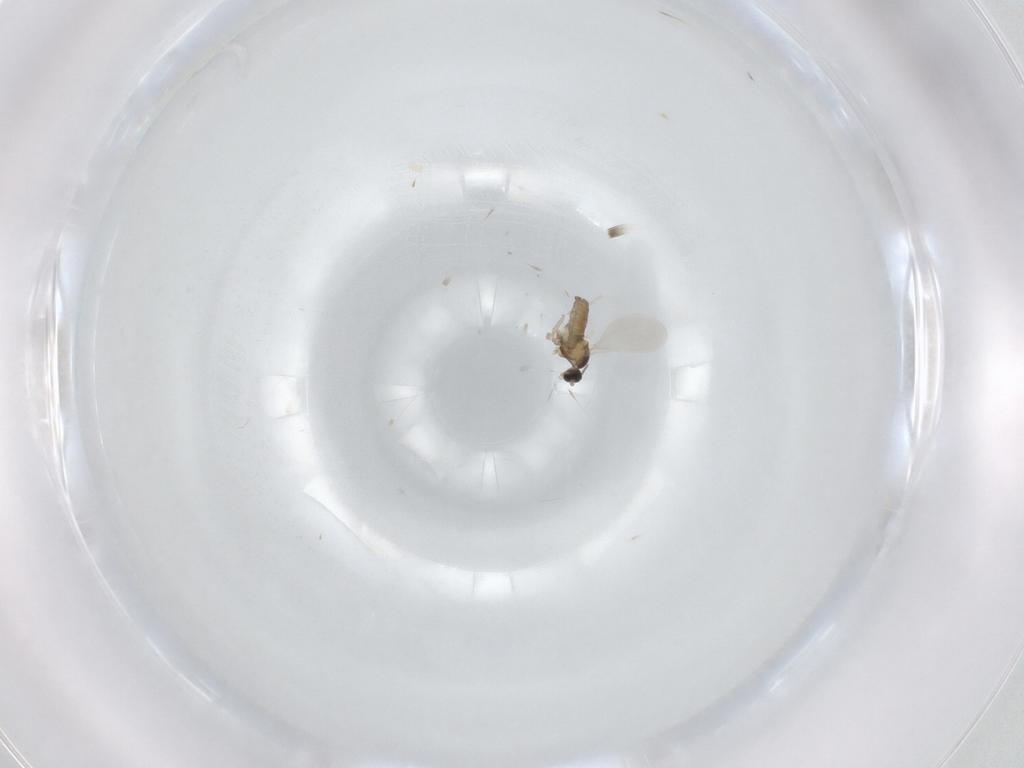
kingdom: Animalia
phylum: Arthropoda
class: Insecta
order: Diptera
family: Cecidomyiidae
